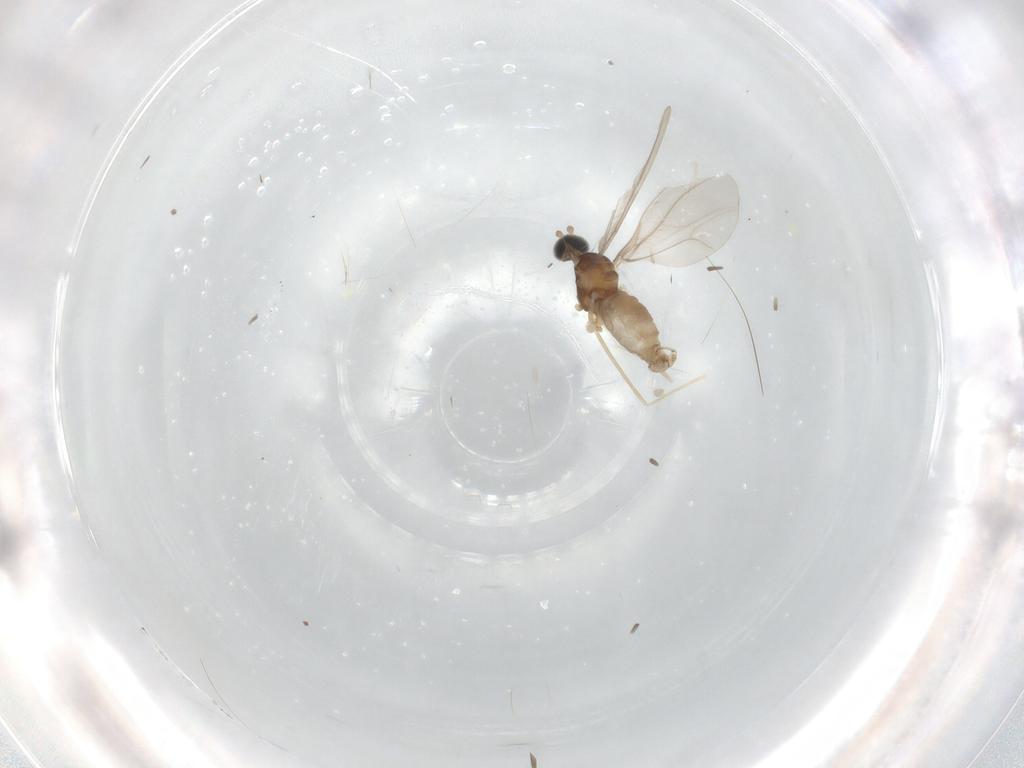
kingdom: Animalia
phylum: Arthropoda
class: Insecta
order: Diptera
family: Cecidomyiidae
